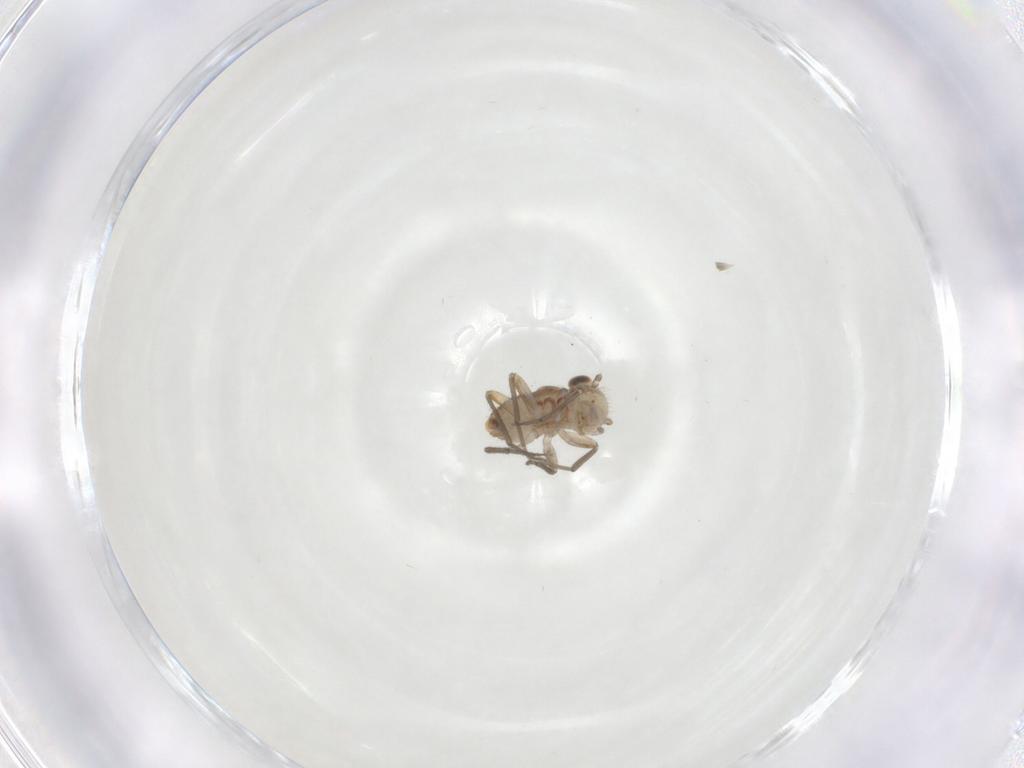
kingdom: Animalia
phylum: Arthropoda
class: Insecta
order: Psocodea
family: Mesopsocidae
